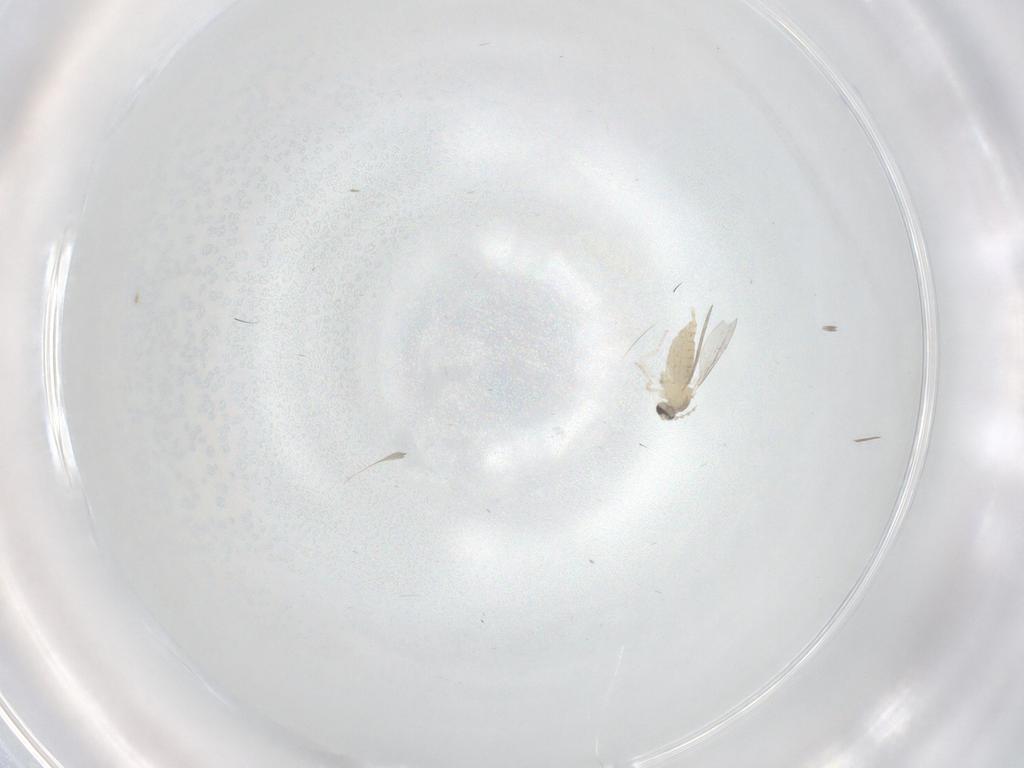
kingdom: Animalia
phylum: Arthropoda
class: Insecta
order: Diptera
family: Cecidomyiidae
